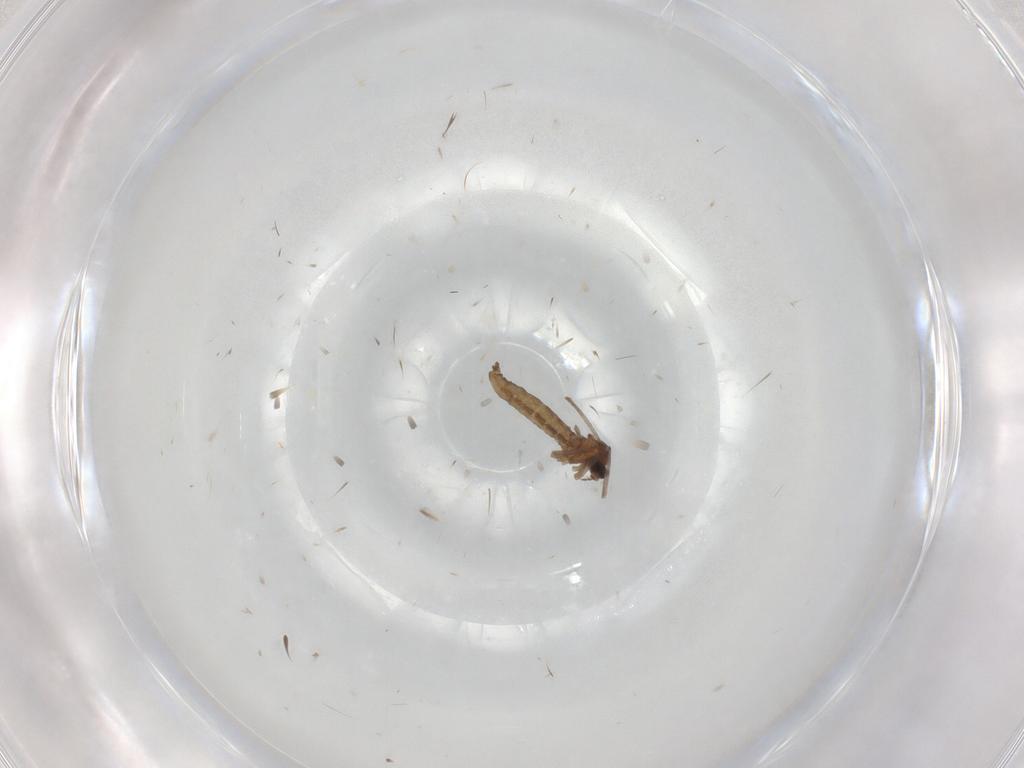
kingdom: Animalia
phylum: Arthropoda
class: Insecta
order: Diptera
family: Cecidomyiidae
